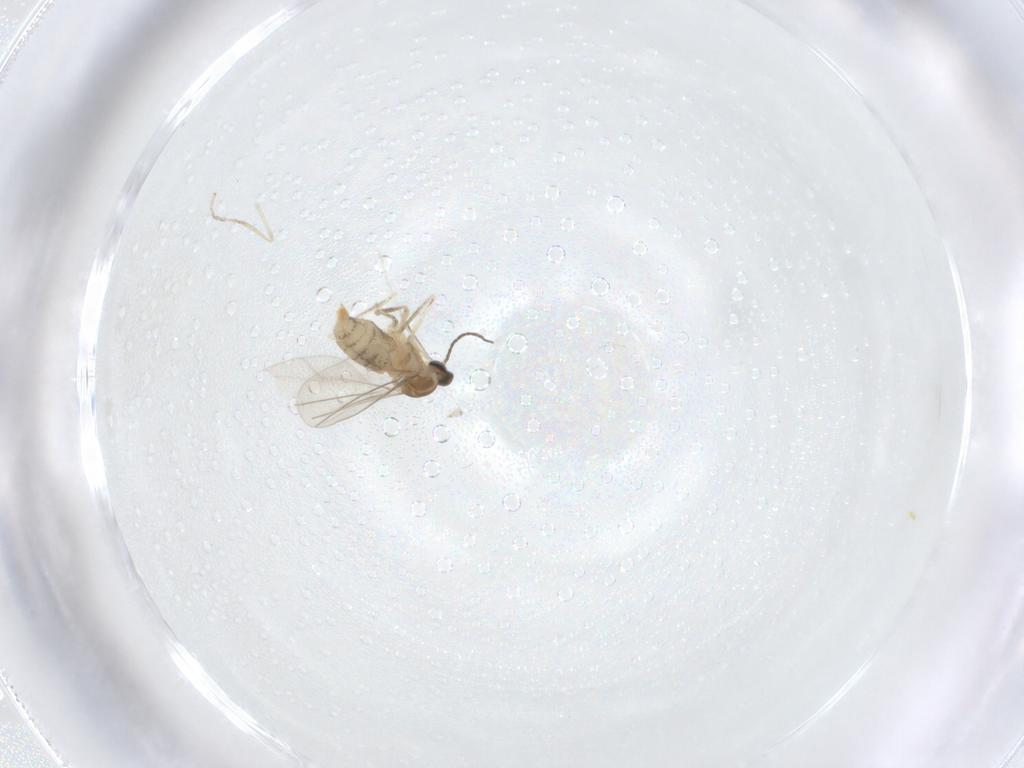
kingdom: Animalia
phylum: Arthropoda
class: Insecta
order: Diptera
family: Cecidomyiidae
